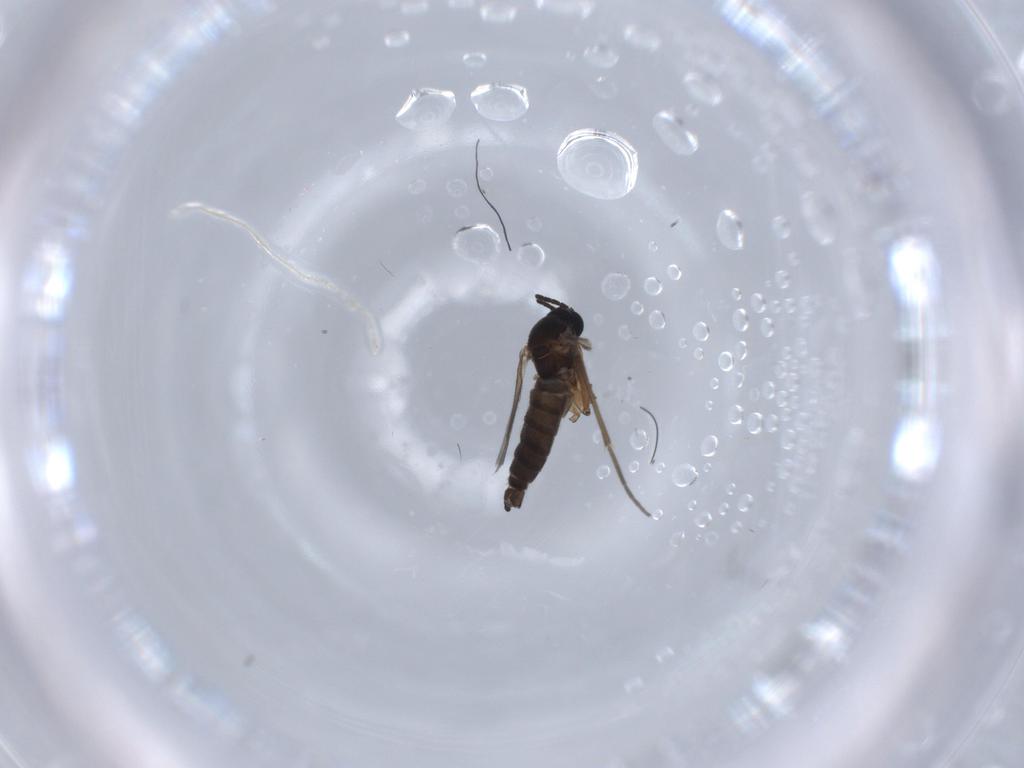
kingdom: Animalia
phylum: Arthropoda
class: Insecta
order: Diptera
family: Sciaridae
